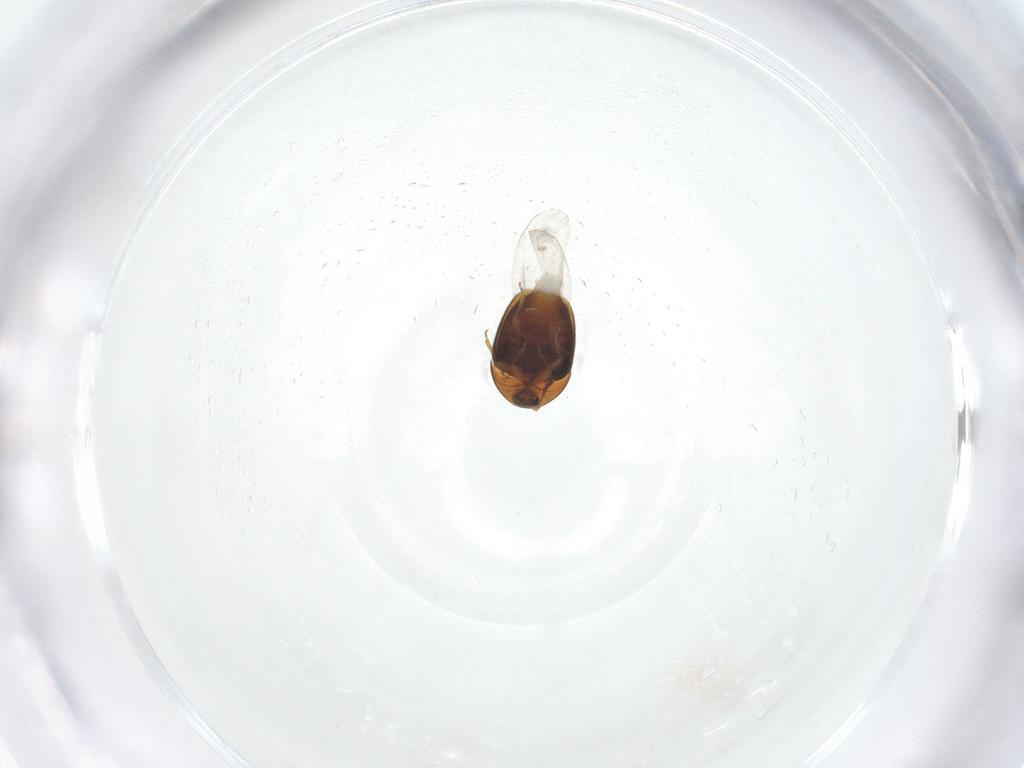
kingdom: Animalia
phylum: Arthropoda
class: Insecta
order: Coleoptera
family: Corylophidae
